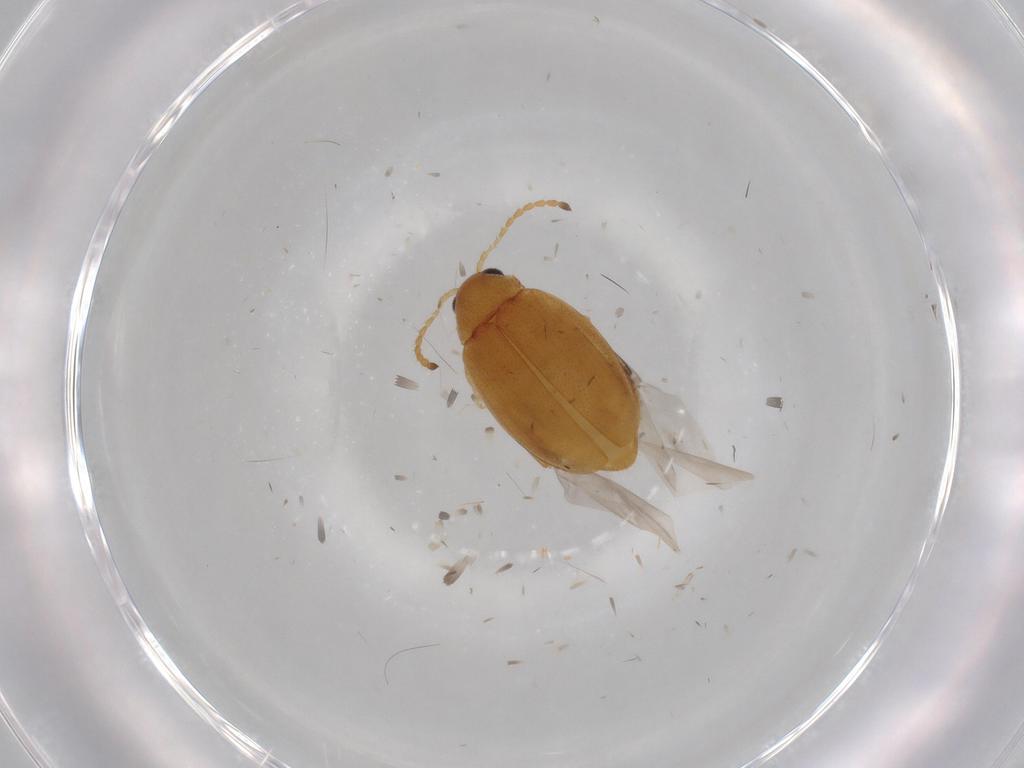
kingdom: Animalia
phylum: Arthropoda
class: Insecta
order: Coleoptera
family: Chrysomelidae
